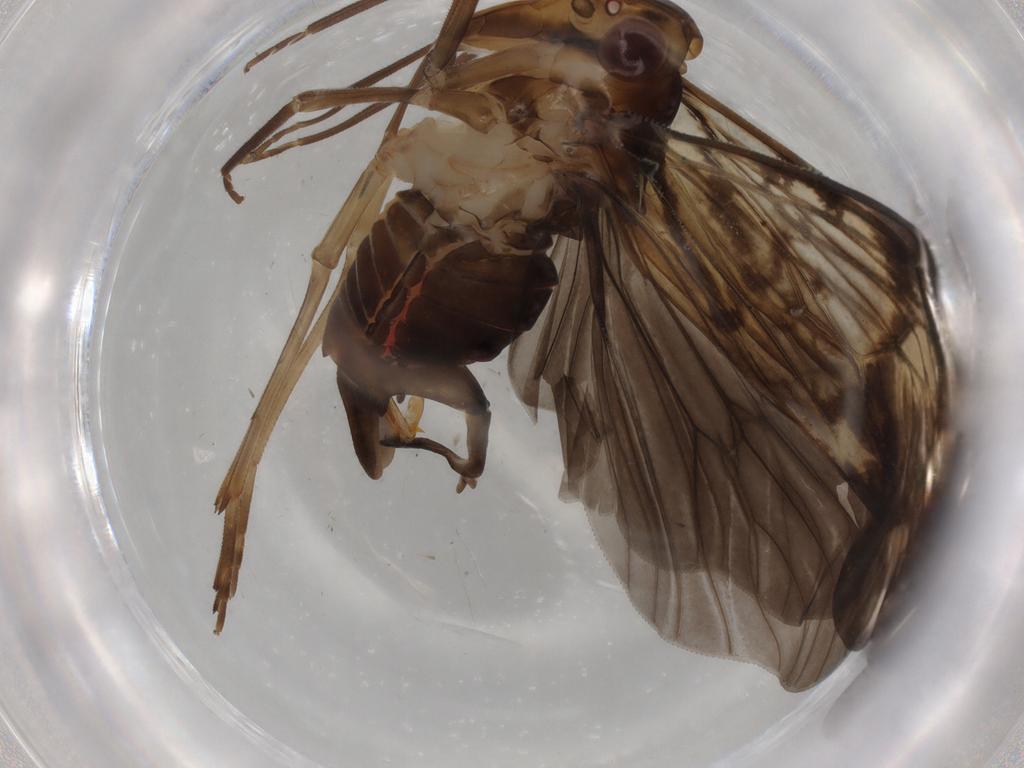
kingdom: Animalia
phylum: Arthropoda
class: Insecta
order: Hemiptera
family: Cixiidae
